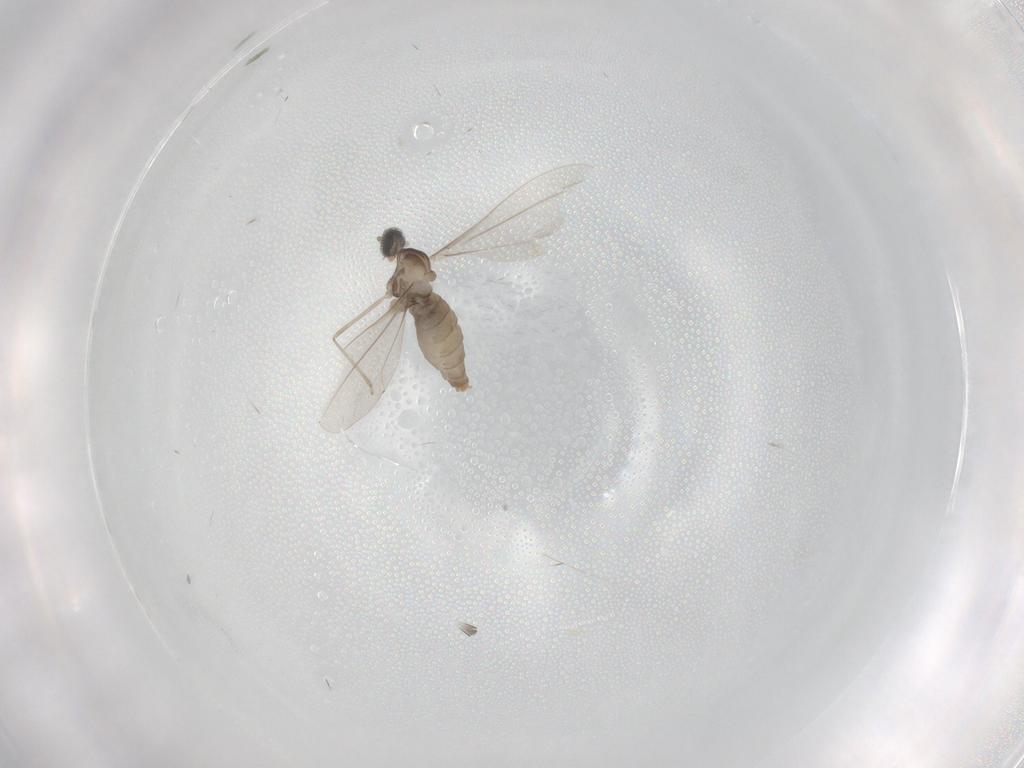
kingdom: Animalia
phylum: Arthropoda
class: Insecta
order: Diptera
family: Cecidomyiidae
